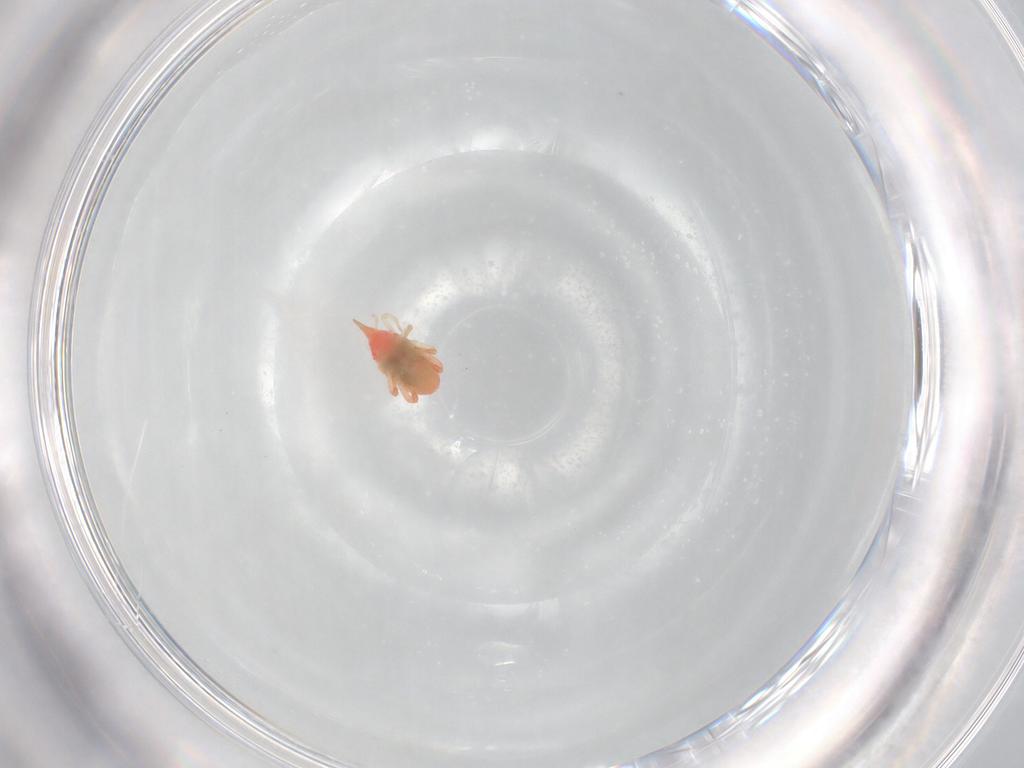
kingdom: Animalia
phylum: Arthropoda
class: Arachnida
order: Trombidiformes
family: Bdellidae
